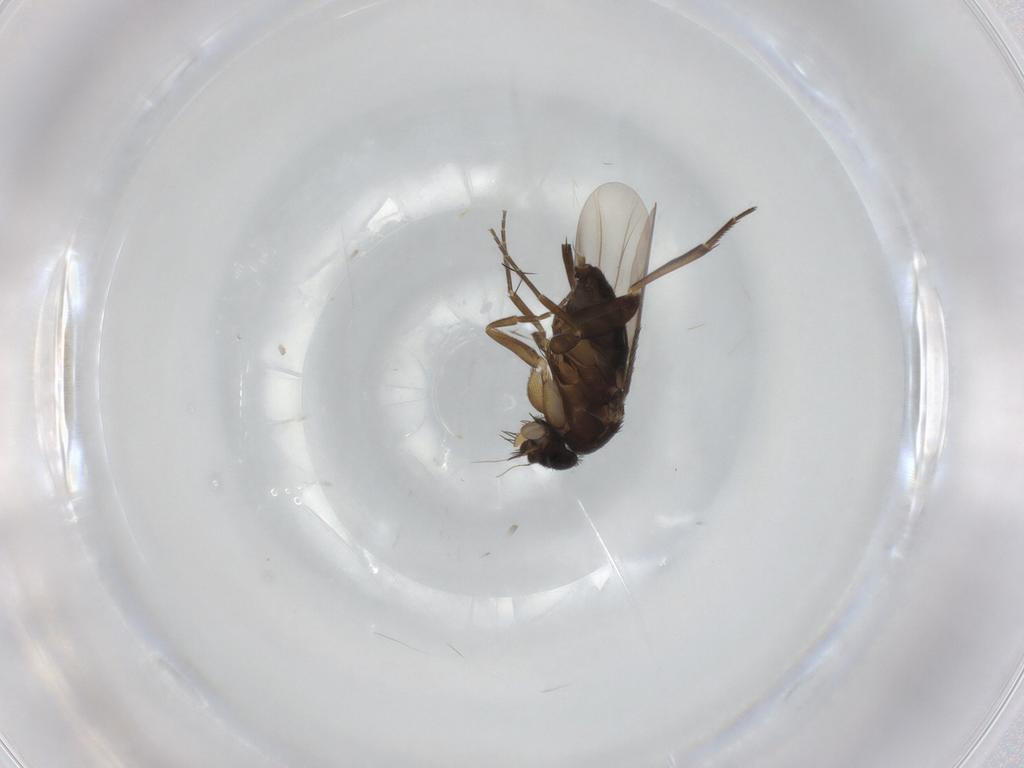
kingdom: Animalia
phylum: Arthropoda
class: Insecta
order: Diptera
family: Phoridae
